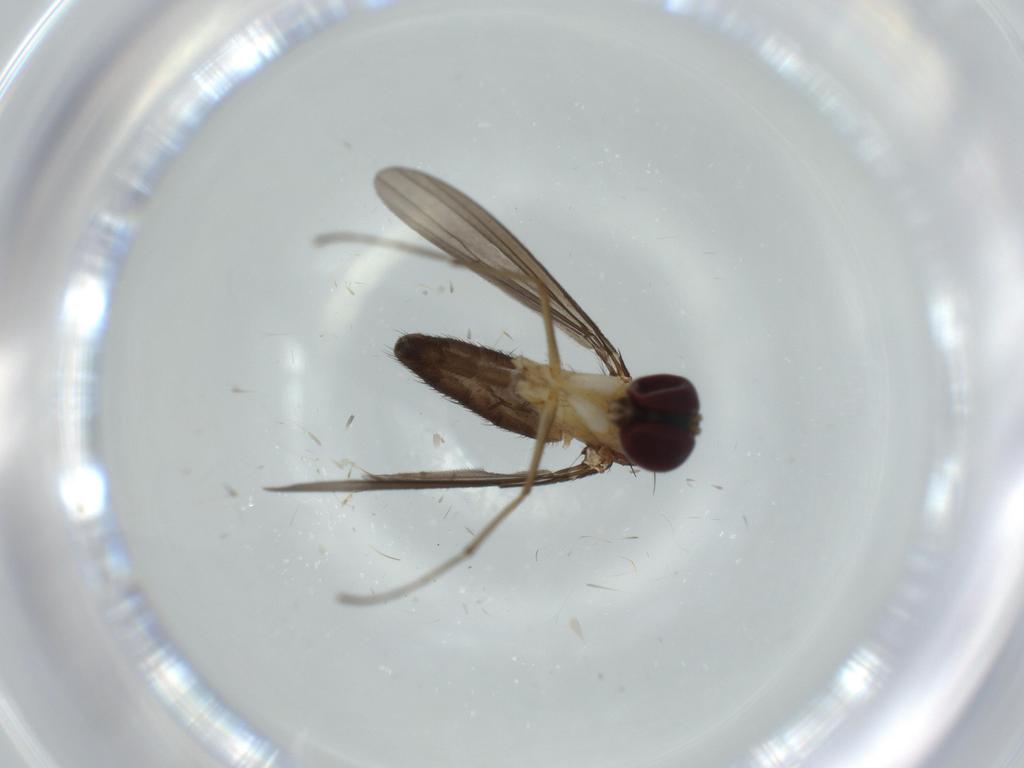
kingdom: Animalia
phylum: Arthropoda
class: Insecta
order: Diptera
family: Dolichopodidae
